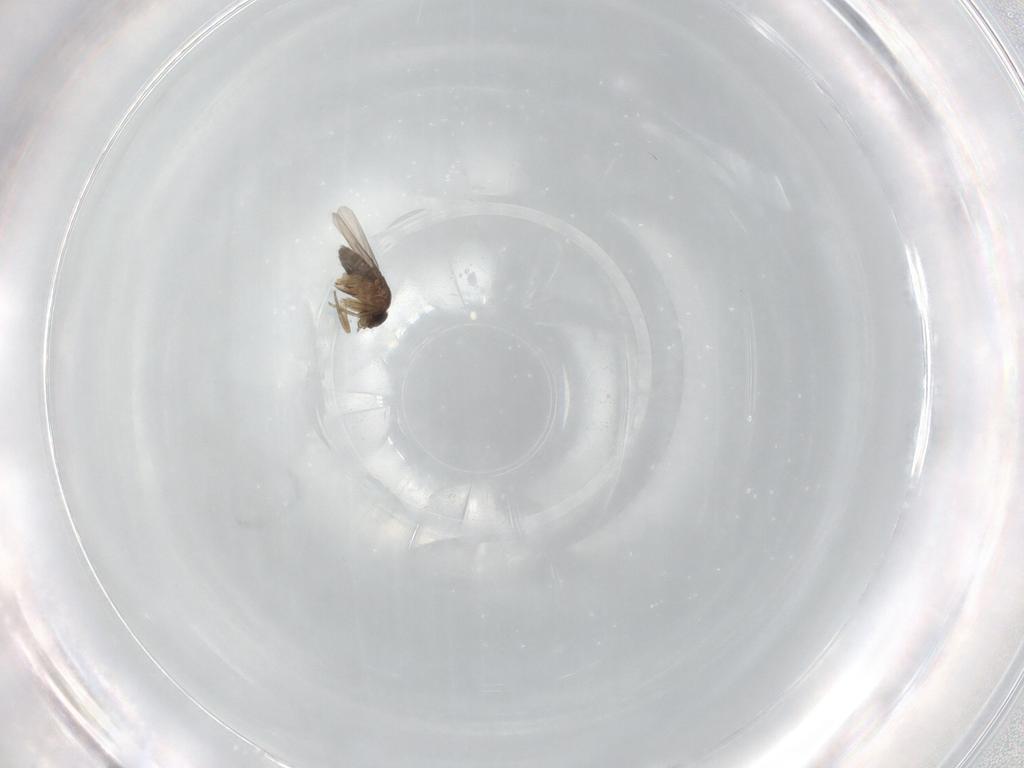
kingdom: Animalia
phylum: Arthropoda
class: Insecta
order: Diptera
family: Phoridae
